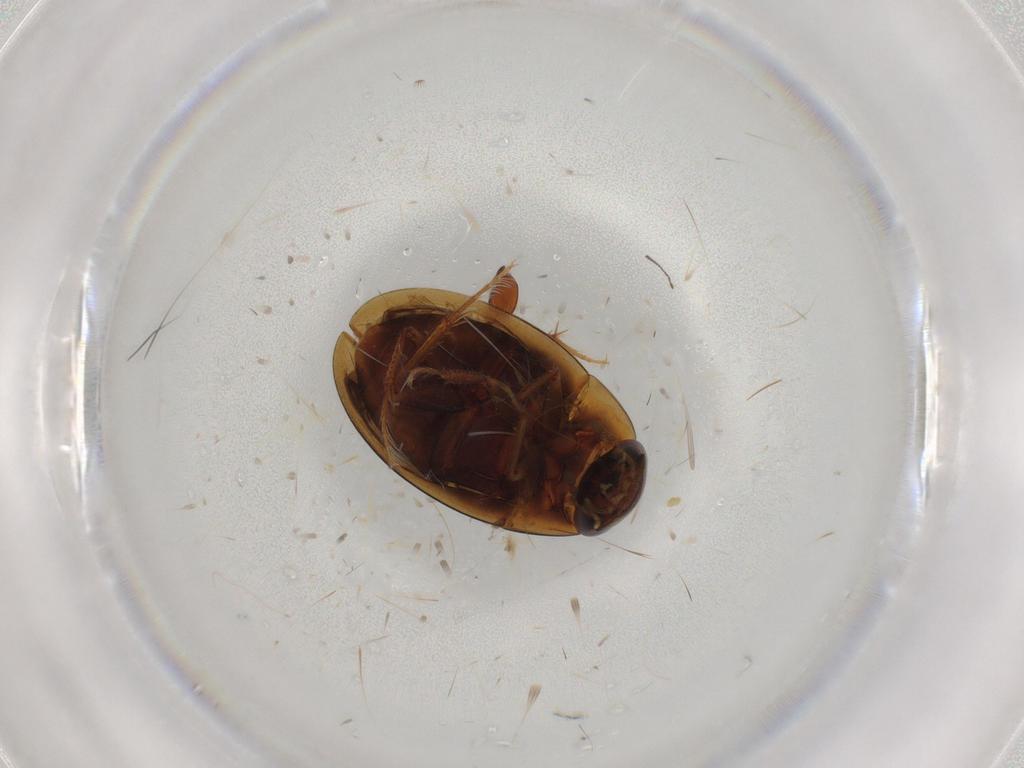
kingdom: Animalia
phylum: Arthropoda
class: Insecta
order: Coleoptera
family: Hydrophilidae
